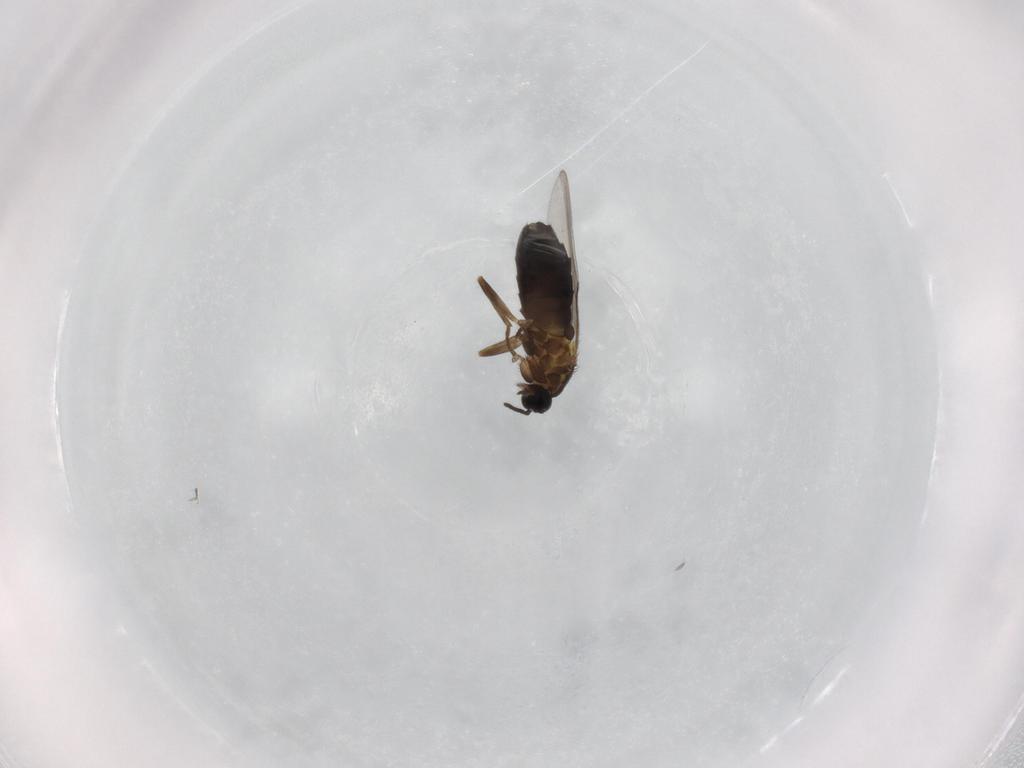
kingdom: Animalia
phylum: Arthropoda
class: Insecta
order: Diptera
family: Scatopsidae
